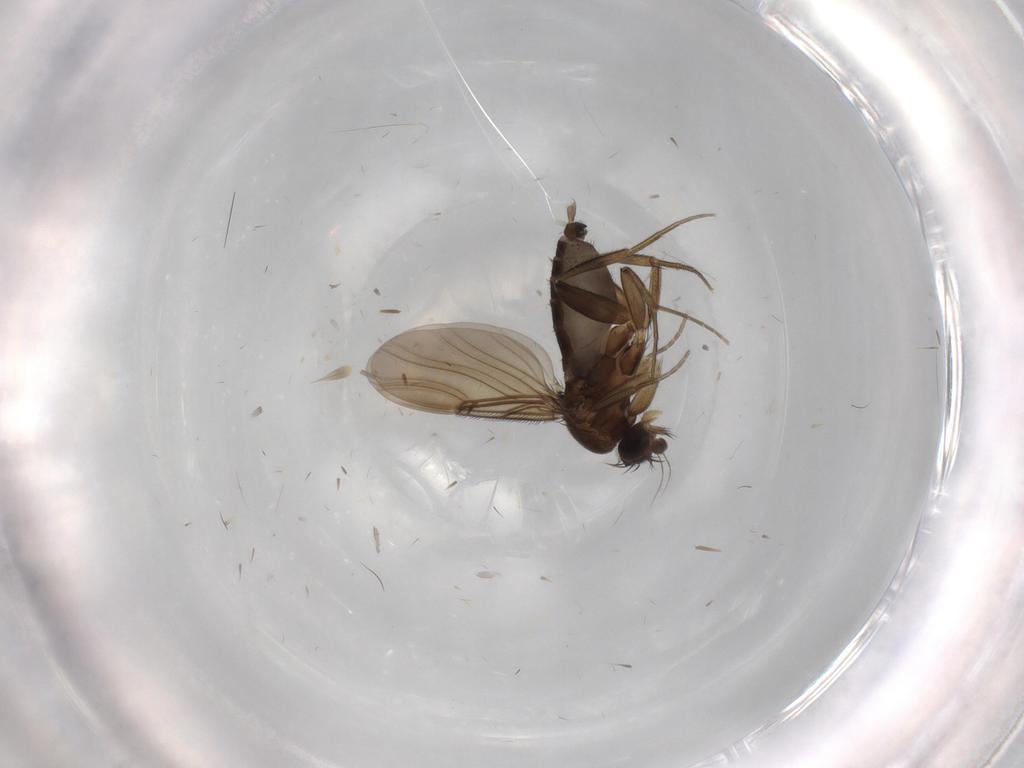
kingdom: Animalia
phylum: Arthropoda
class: Insecta
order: Diptera
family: Phoridae
